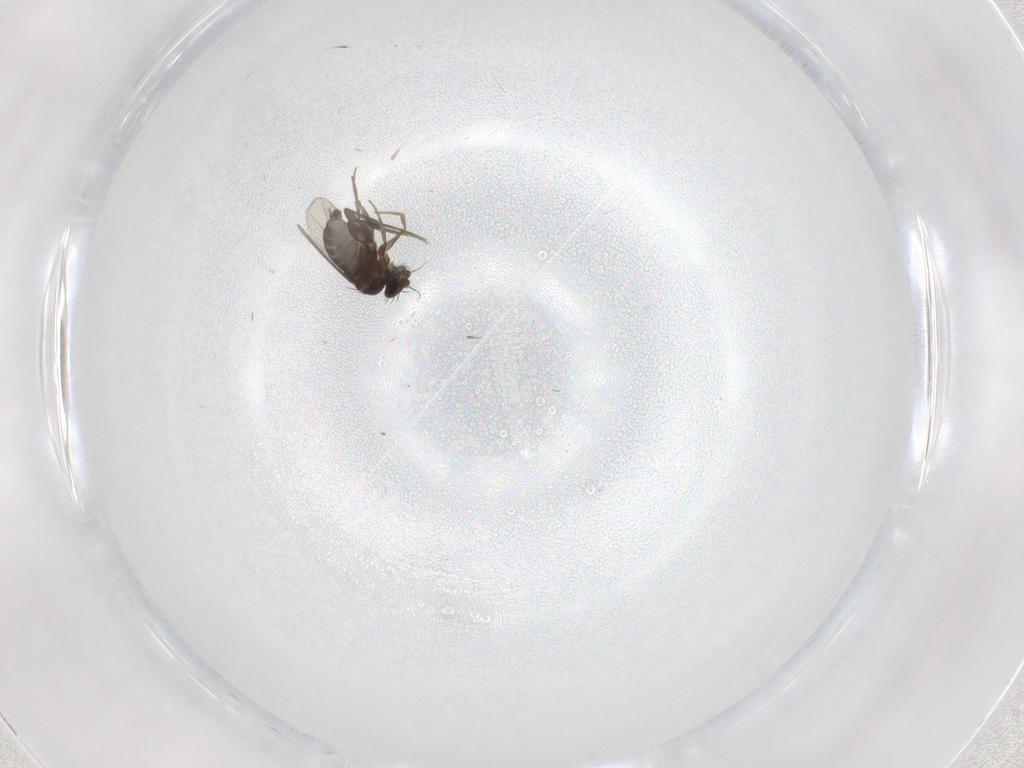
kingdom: Animalia
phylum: Arthropoda
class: Insecta
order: Diptera
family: Phoridae
